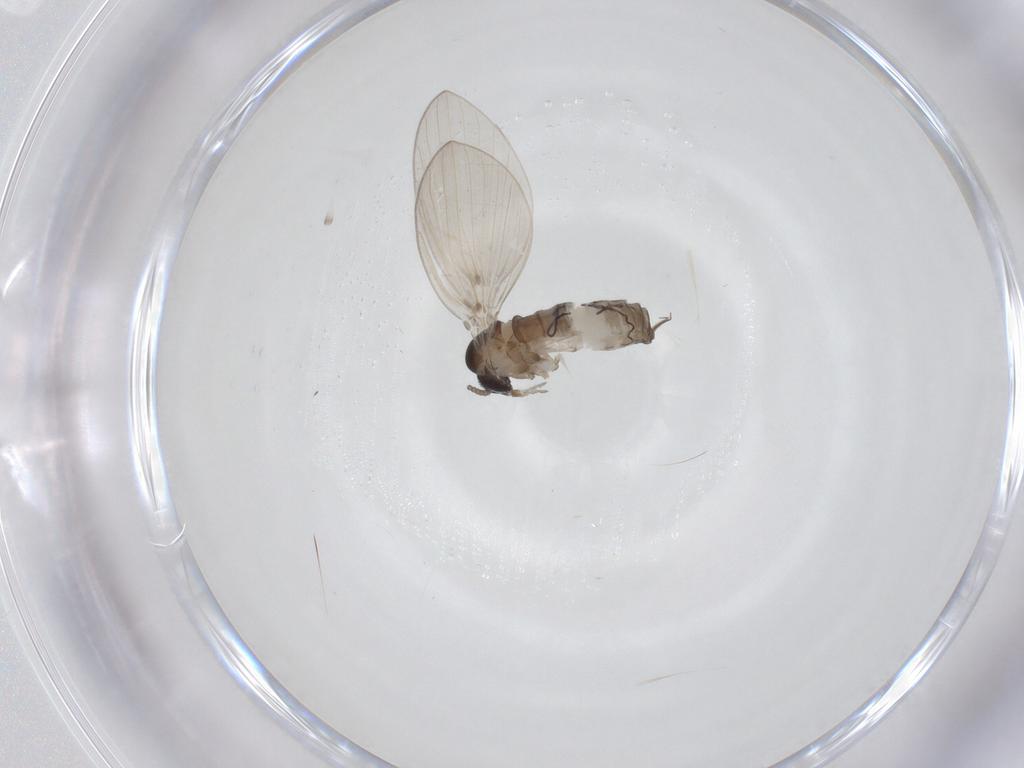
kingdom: Animalia
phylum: Arthropoda
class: Insecta
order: Diptera
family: Psychodidae
